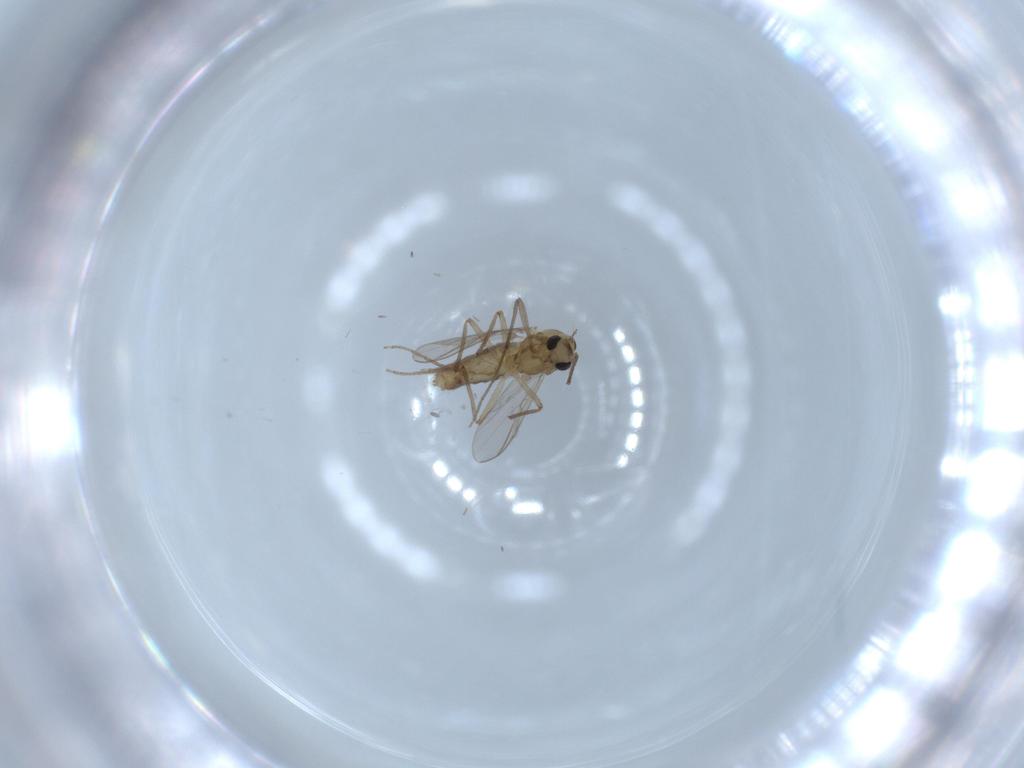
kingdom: Animalia
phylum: Arthropoda
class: Insecta
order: Diptera
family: Chironomidae
